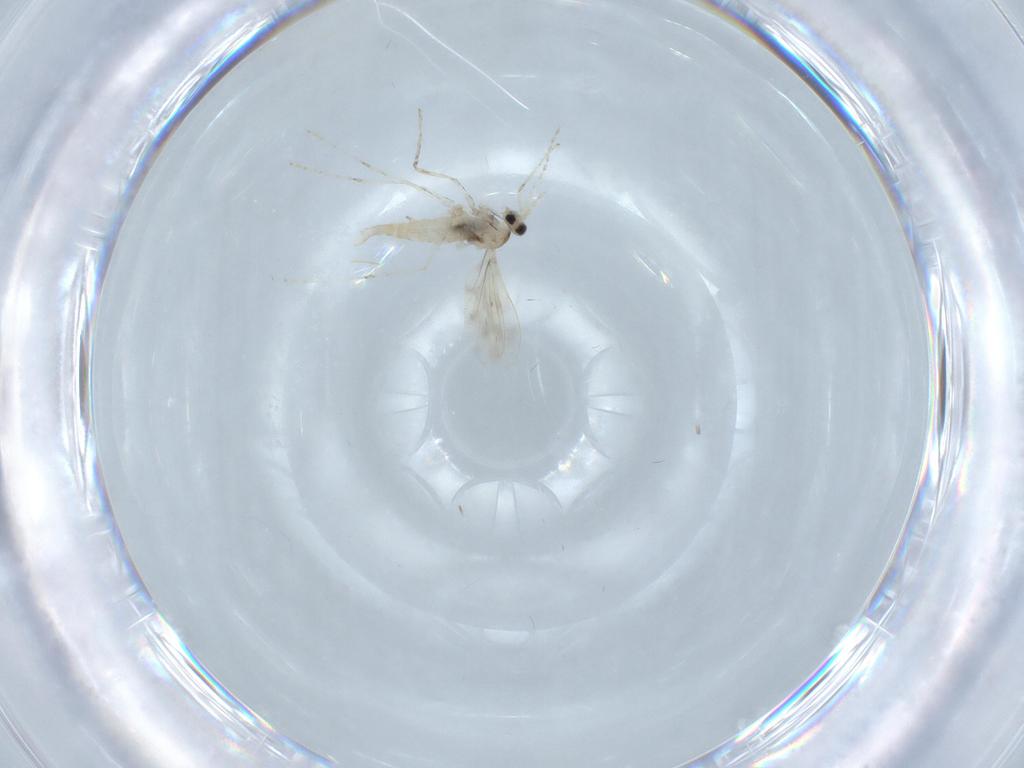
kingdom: Animalia
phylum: Arthropoda
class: Insecta
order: Diptera
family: Cecidomyiidae
